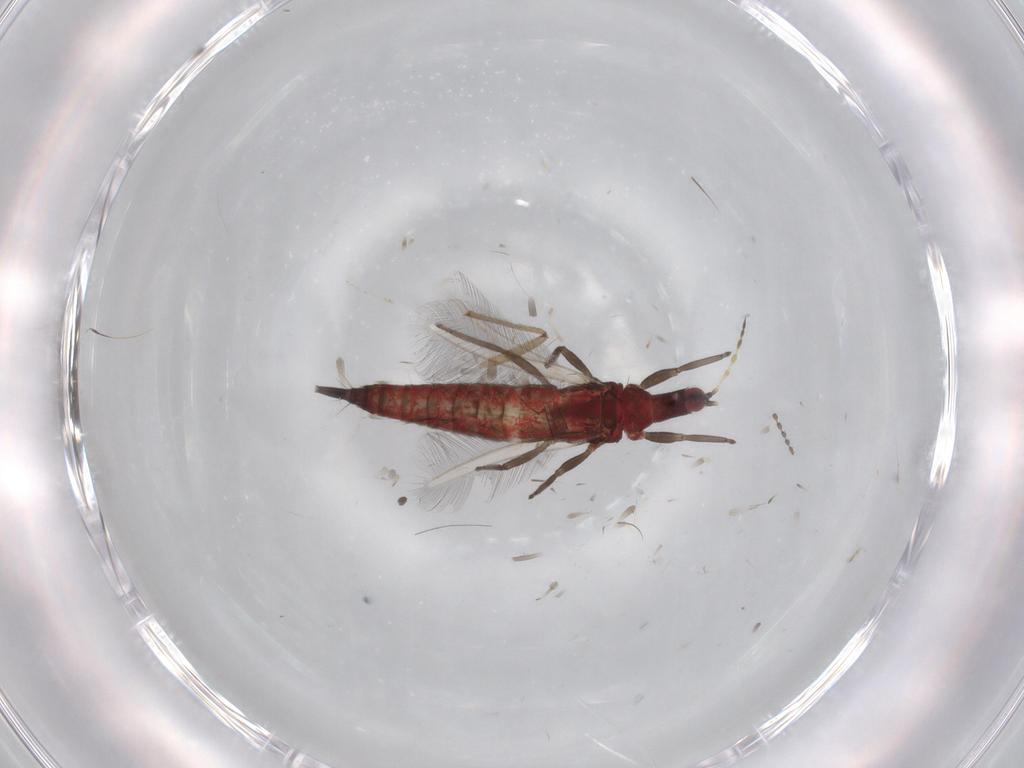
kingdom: Animalia
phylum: Arthropoda
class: Insecta
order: Thysanoptera
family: Phlaeothripidae
